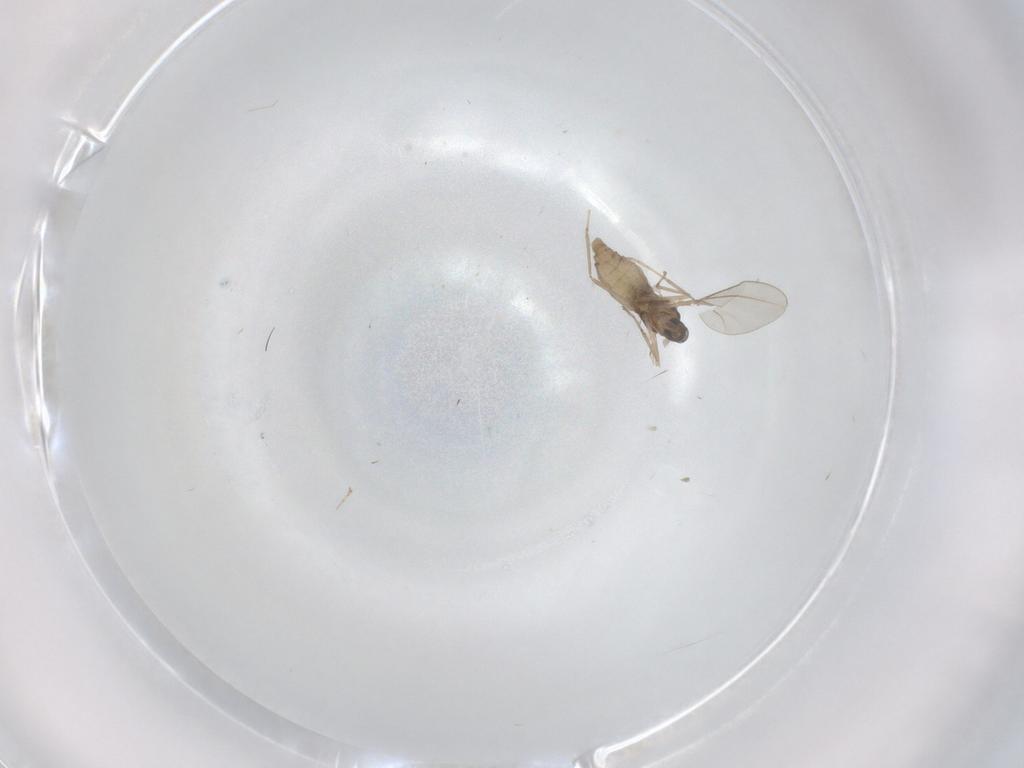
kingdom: Animalia
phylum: Arthropoda
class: Insecta
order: Diptera
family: Cecidomyiidae
